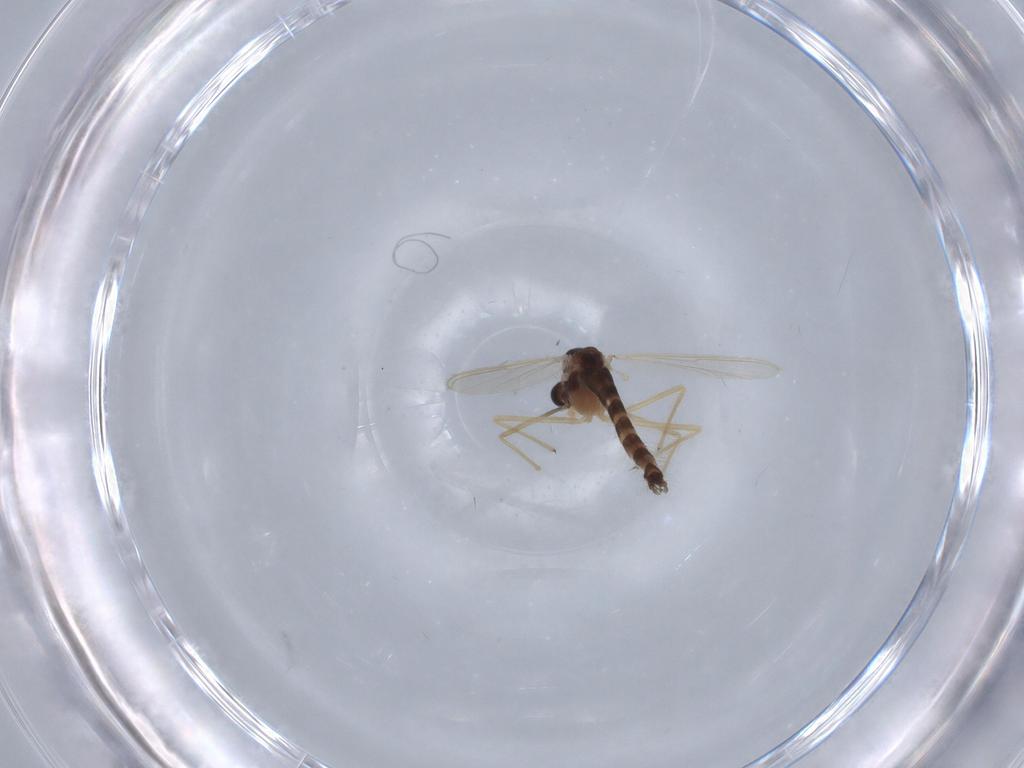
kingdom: Animalia
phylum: Arthropoda
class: Insecta
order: Diptera
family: Chironomidae
